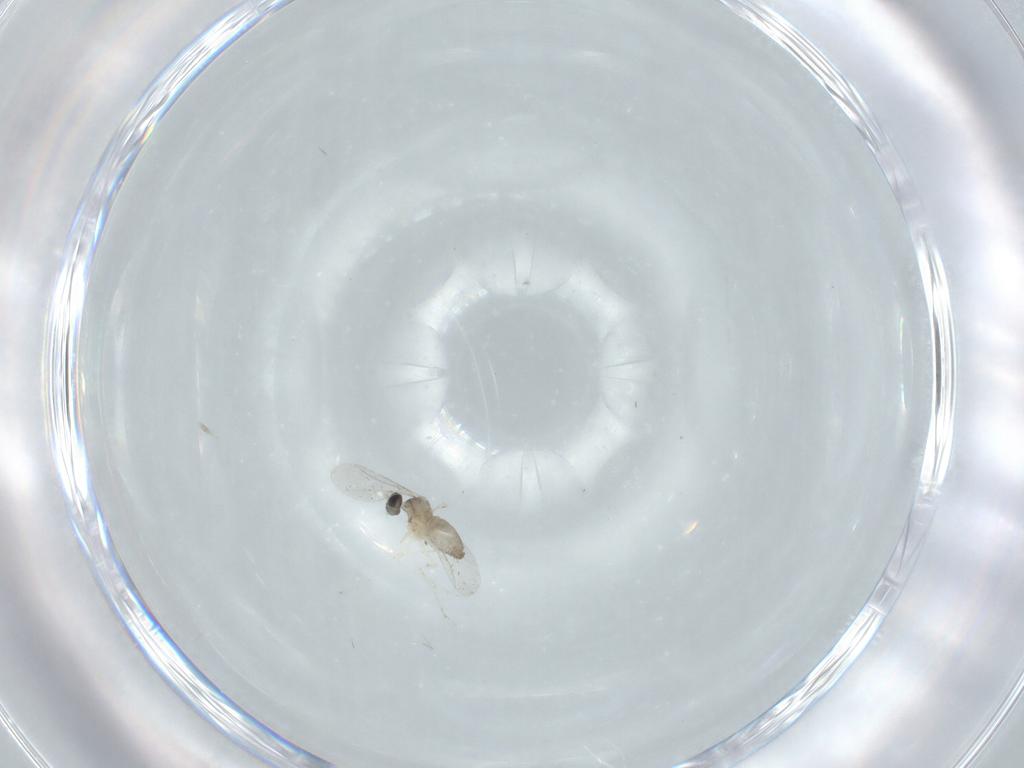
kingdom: Animalia
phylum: Arthropoda
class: Insecta
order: Diptera
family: Cecidomyiidae
